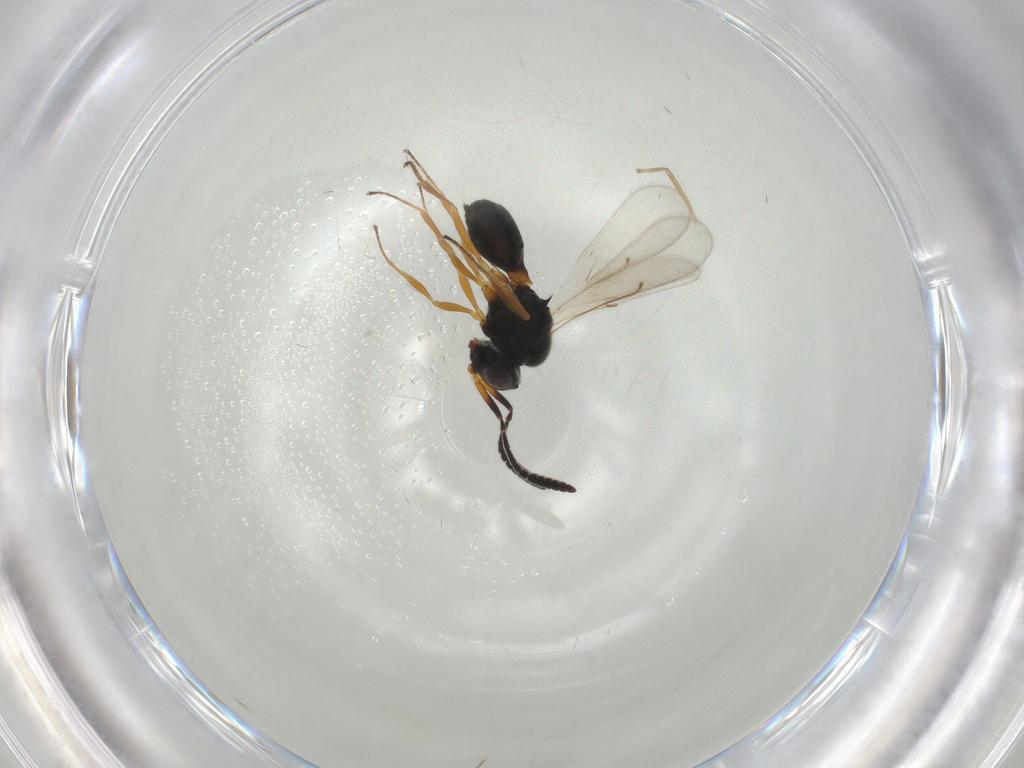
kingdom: Animalia
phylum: Arthropoda
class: Insecta
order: Hymenoptera
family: Scelionidae
